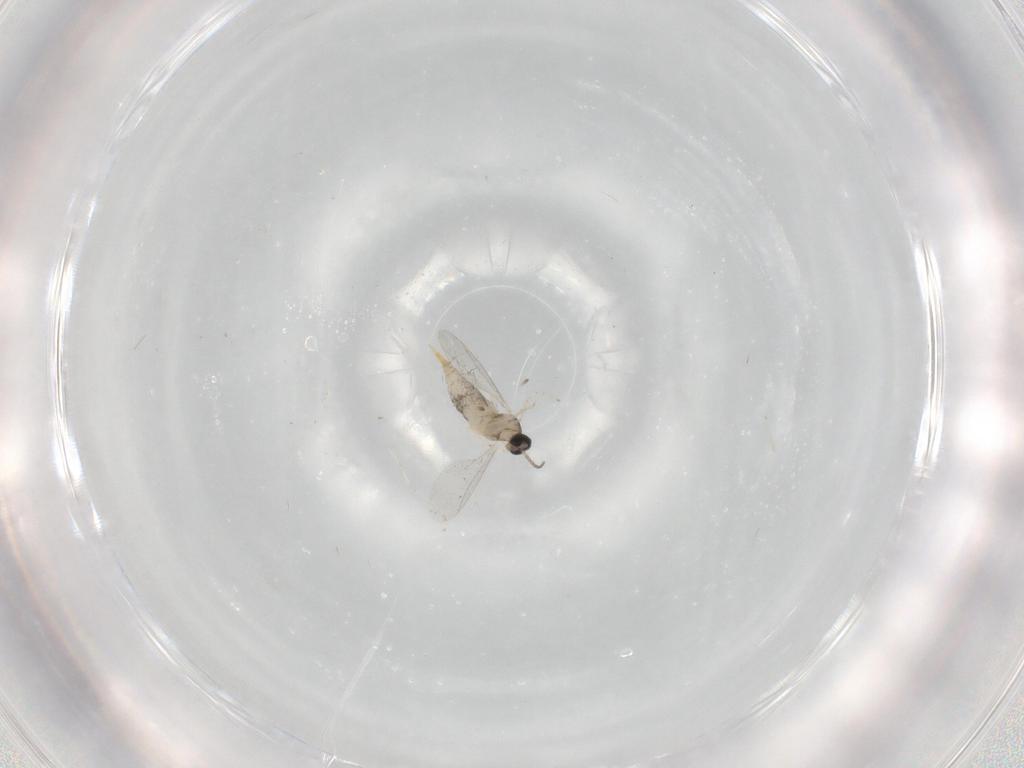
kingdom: Animalia
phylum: Arthropoda
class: Insecta
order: Diptera
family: Cecidomyiidae
